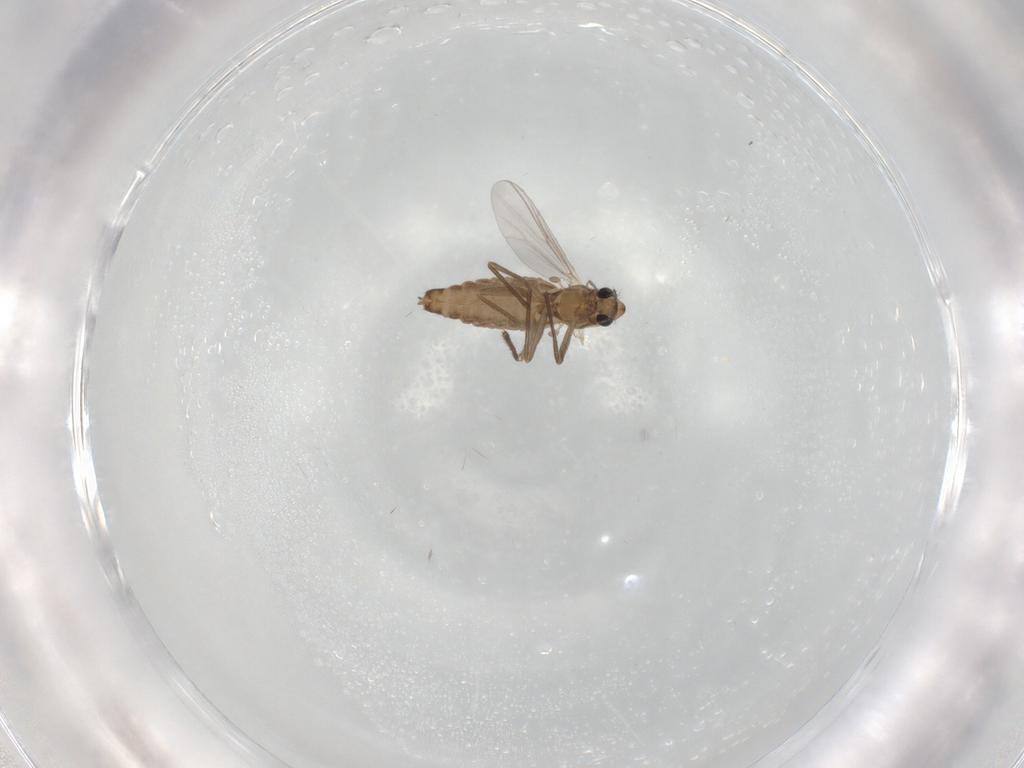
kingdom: Animalia
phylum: Arthropoda
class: Insecta
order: Diptera
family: Chironomidae
